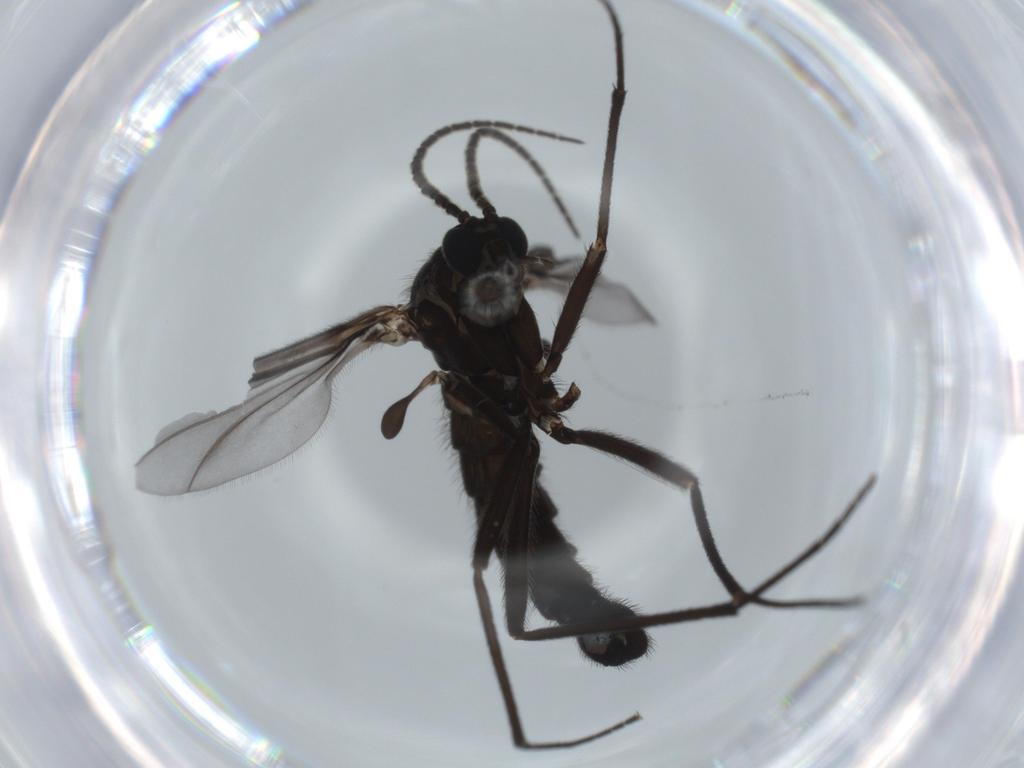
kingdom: Animalia
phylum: Arthropoda
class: Insecta
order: Diptera
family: Sciaridae
